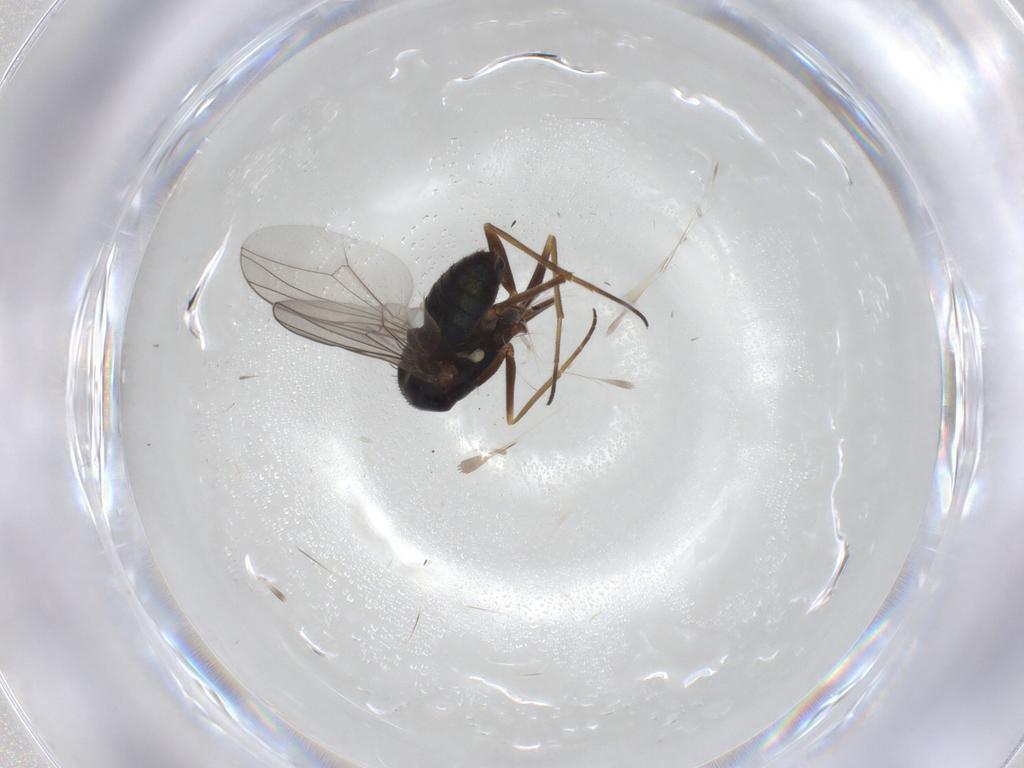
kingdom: Animalia
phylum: Arthropoda
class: Insecta
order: Diptera
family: Dolichopodidae
